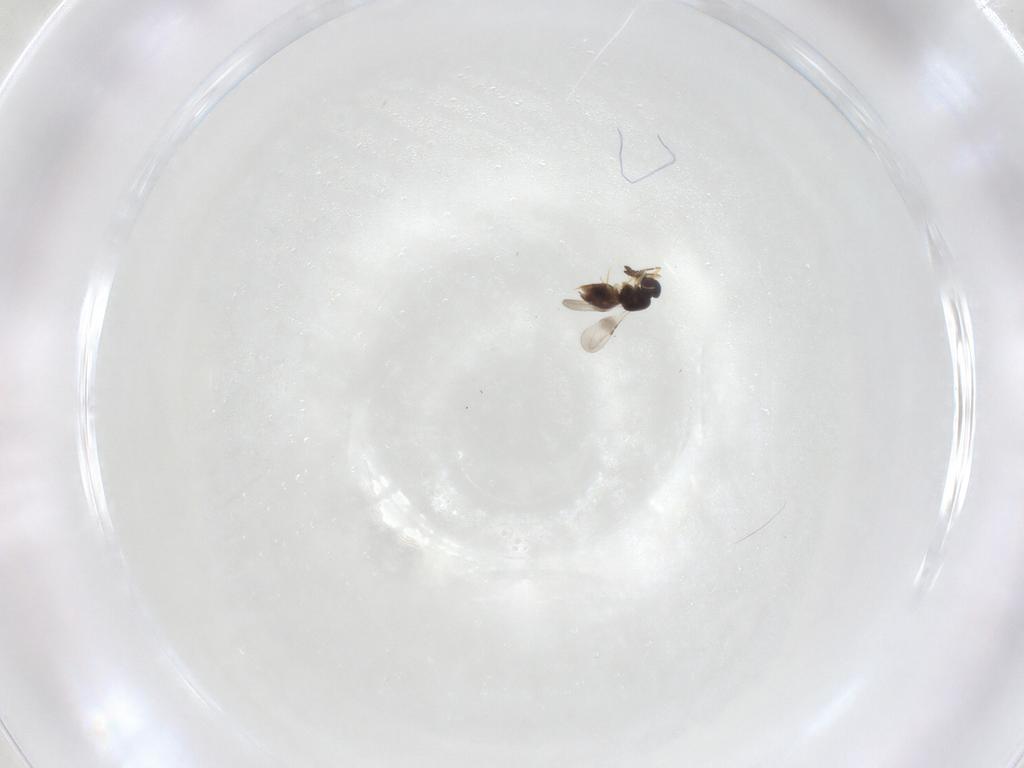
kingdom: Animalia
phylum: Arthropoda
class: Insecta
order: Hymenoptera
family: Ceraphronidae
